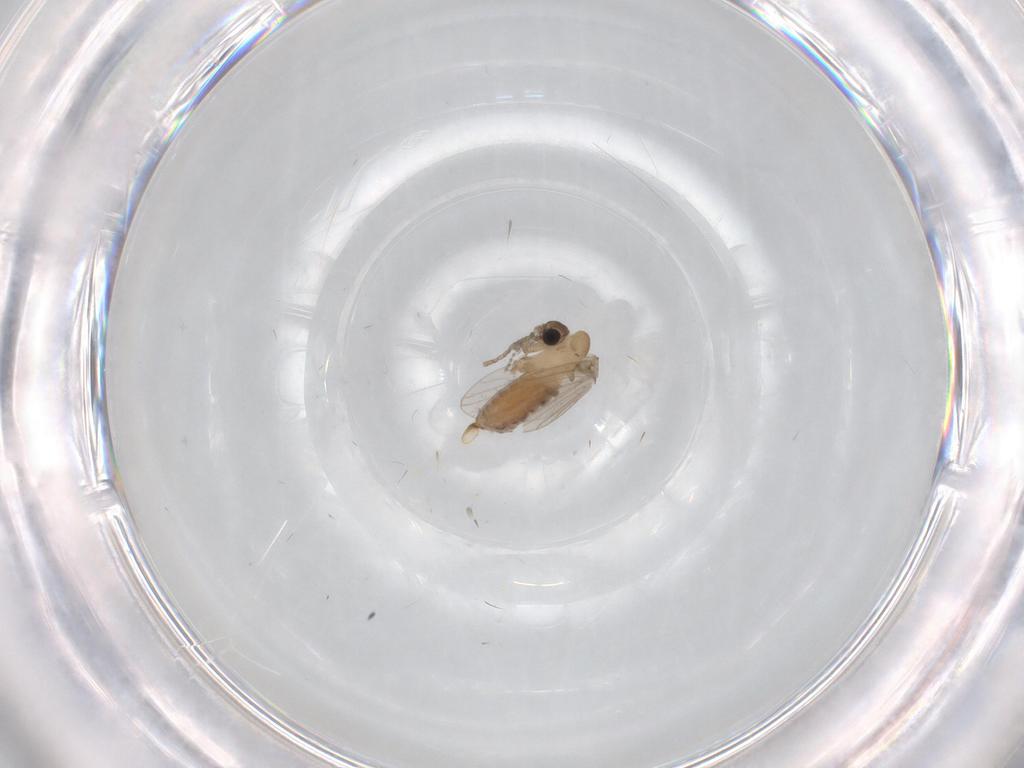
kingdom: Animalia
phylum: Arthropoda
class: Insecta
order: Diptera
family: Psychodidae
